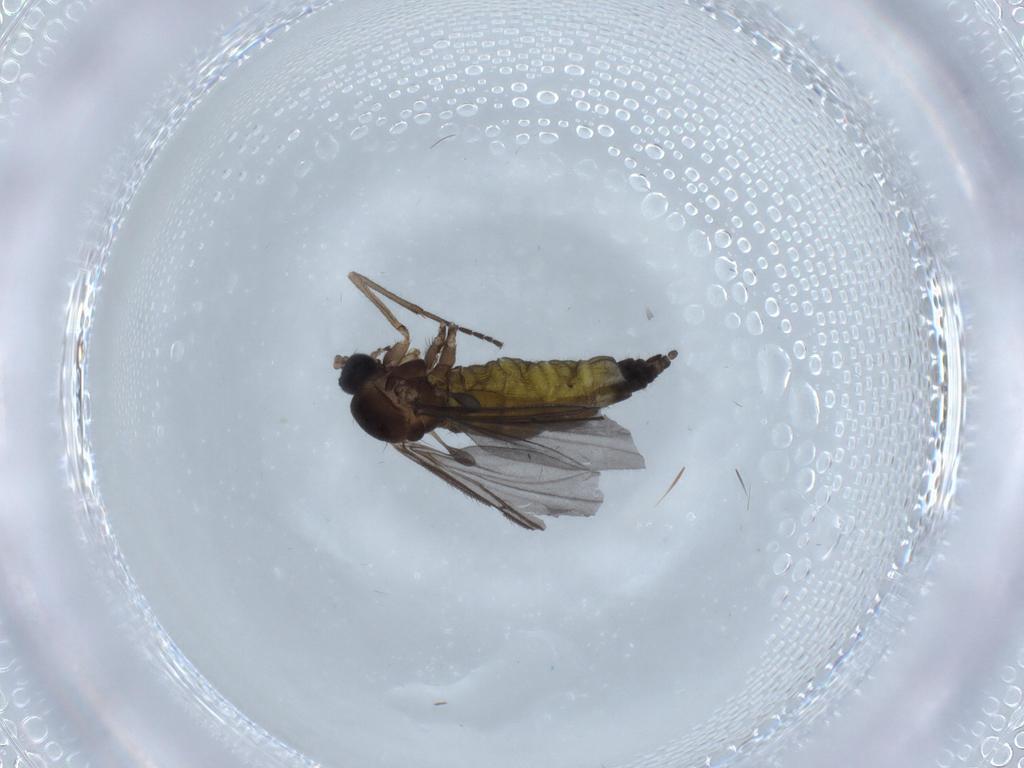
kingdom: Animalia
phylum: Arthropoda
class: Insecta
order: Diptera
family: Sciaridae
